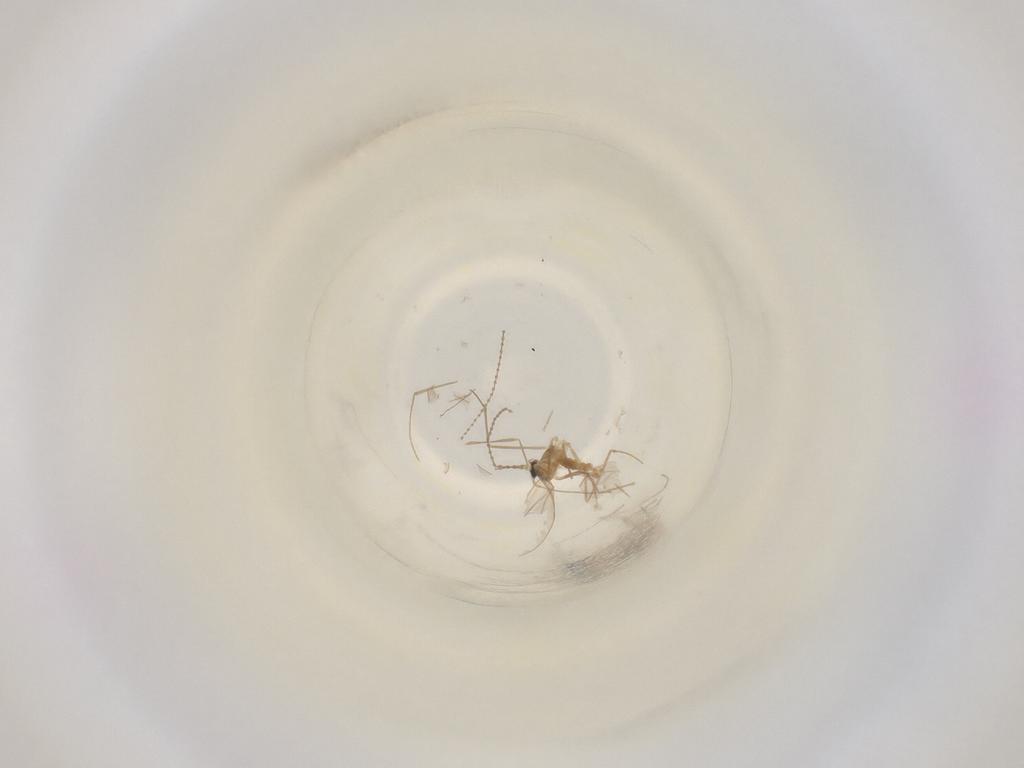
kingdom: Animalia
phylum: Arthropoda
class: Insecta
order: Diptera
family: Cecidomyiidae
